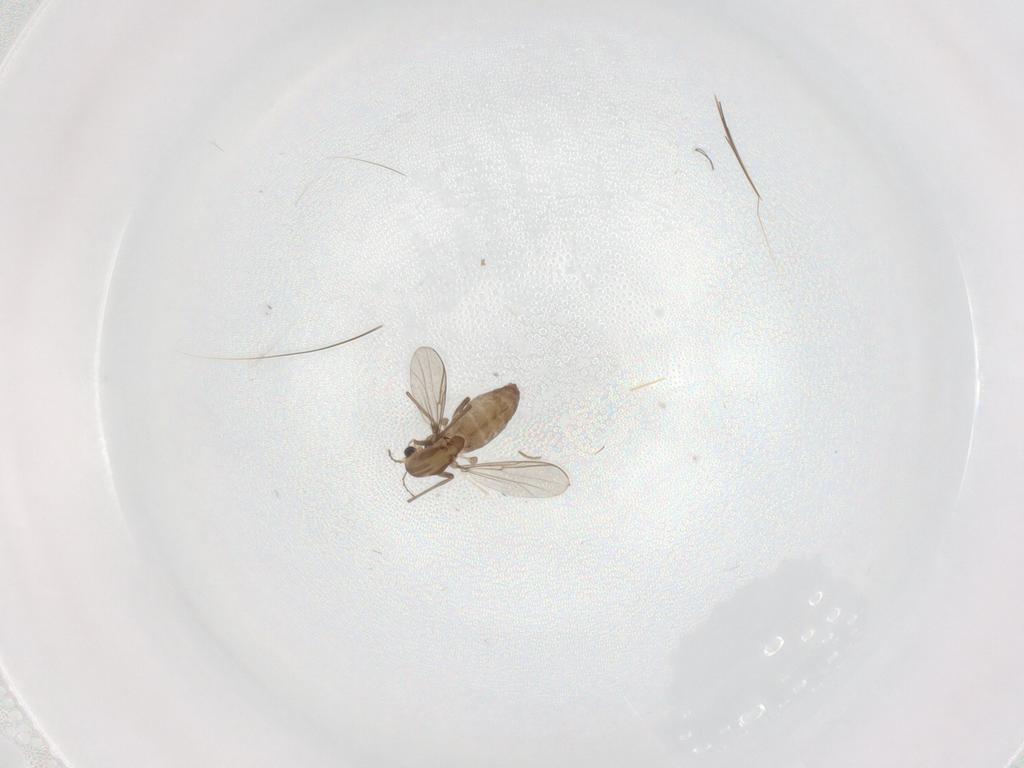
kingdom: Animalia
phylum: Arthropoda
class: Insecta
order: Diptera
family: Chironomidae
